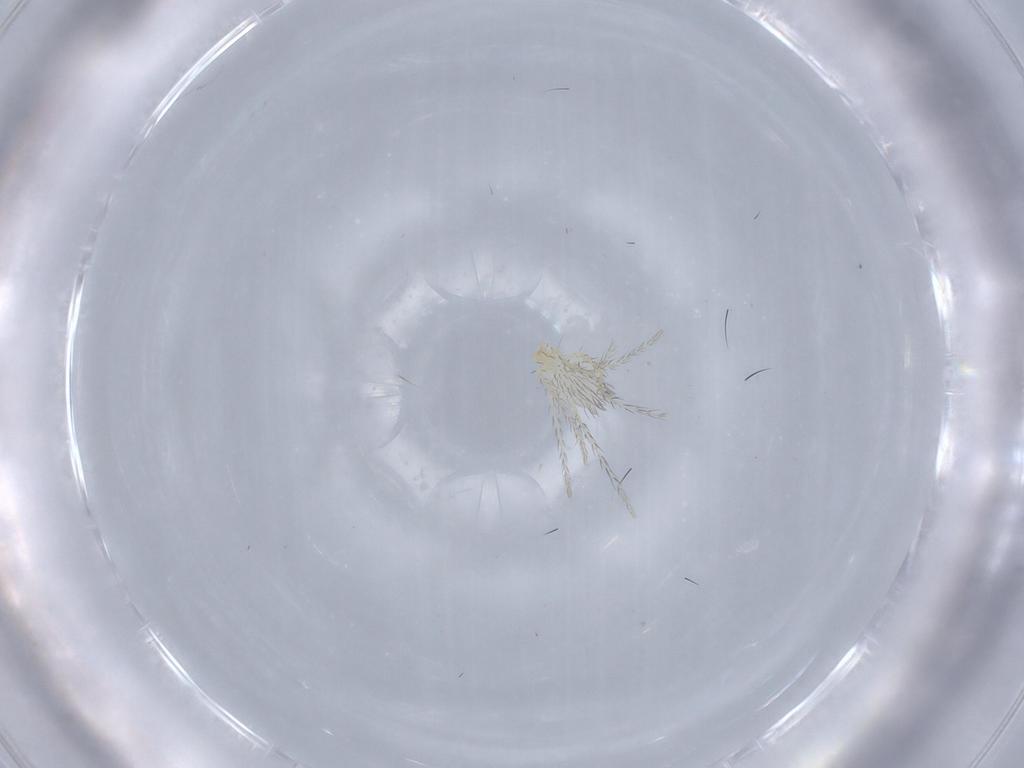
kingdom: Animalia
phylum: Arthropoda
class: Arachnida
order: Trombidiformes
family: Erythraeidae
